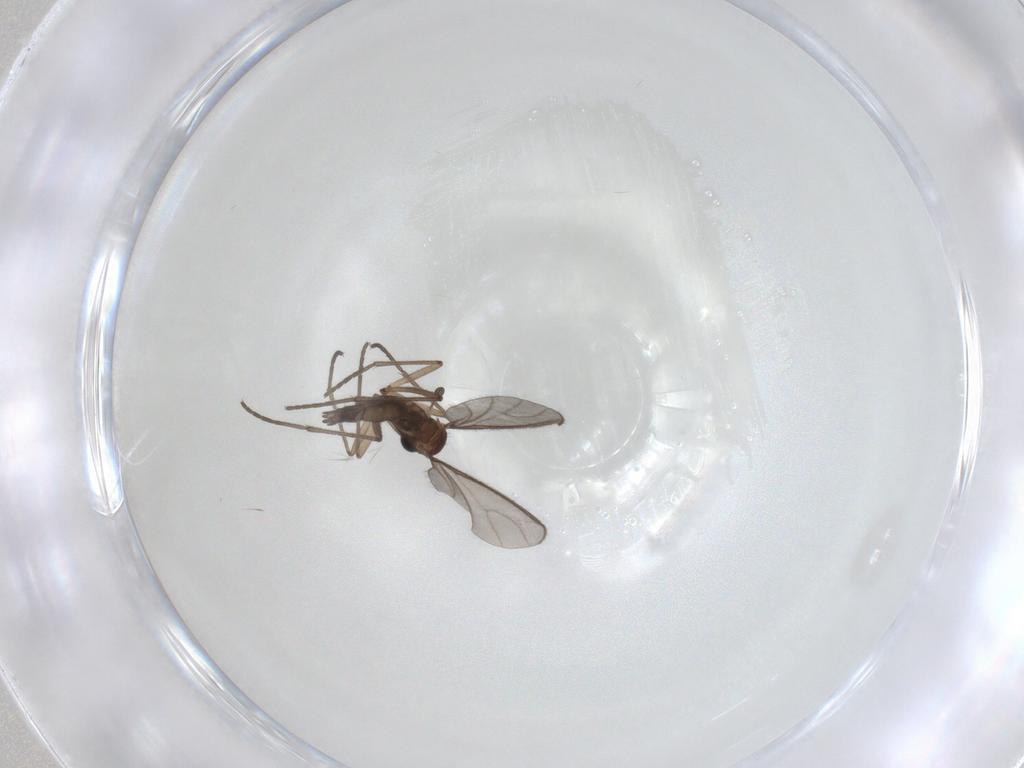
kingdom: Animalia
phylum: Arthropoda
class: Insecta
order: Diptera
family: Sciaridae
